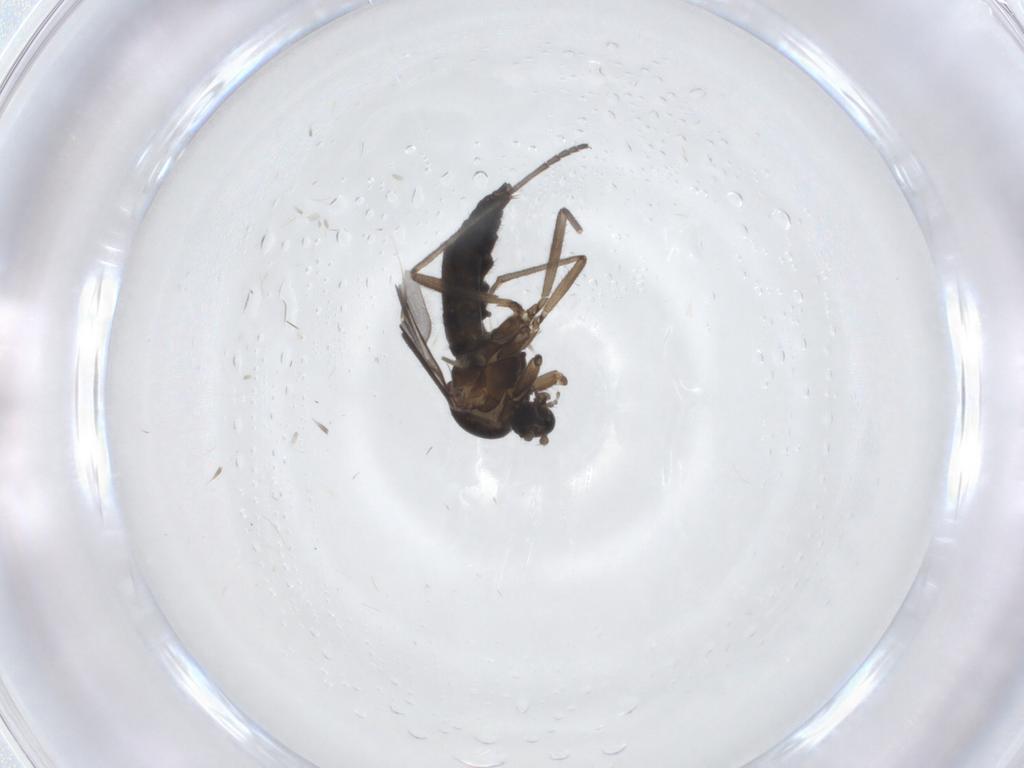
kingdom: Animalia
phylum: Arthropoda
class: Insecta
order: Diptera
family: Sciaridae
